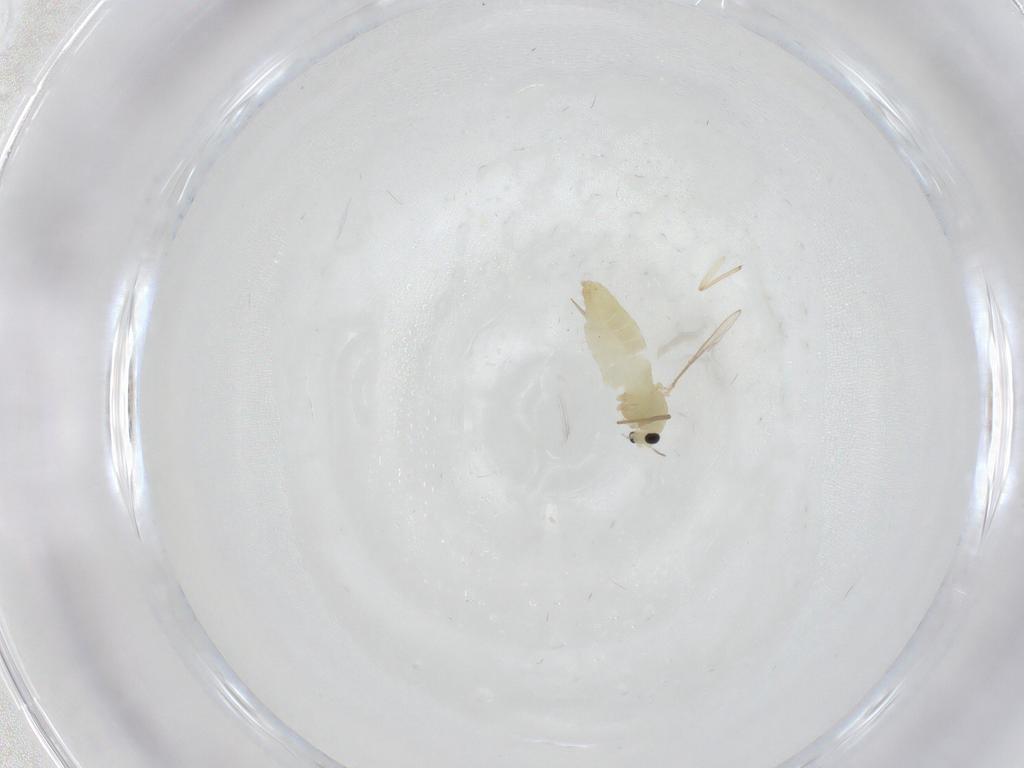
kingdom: Animalia
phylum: Arthropoda
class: Insecta
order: Diptera
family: Chironomidae
